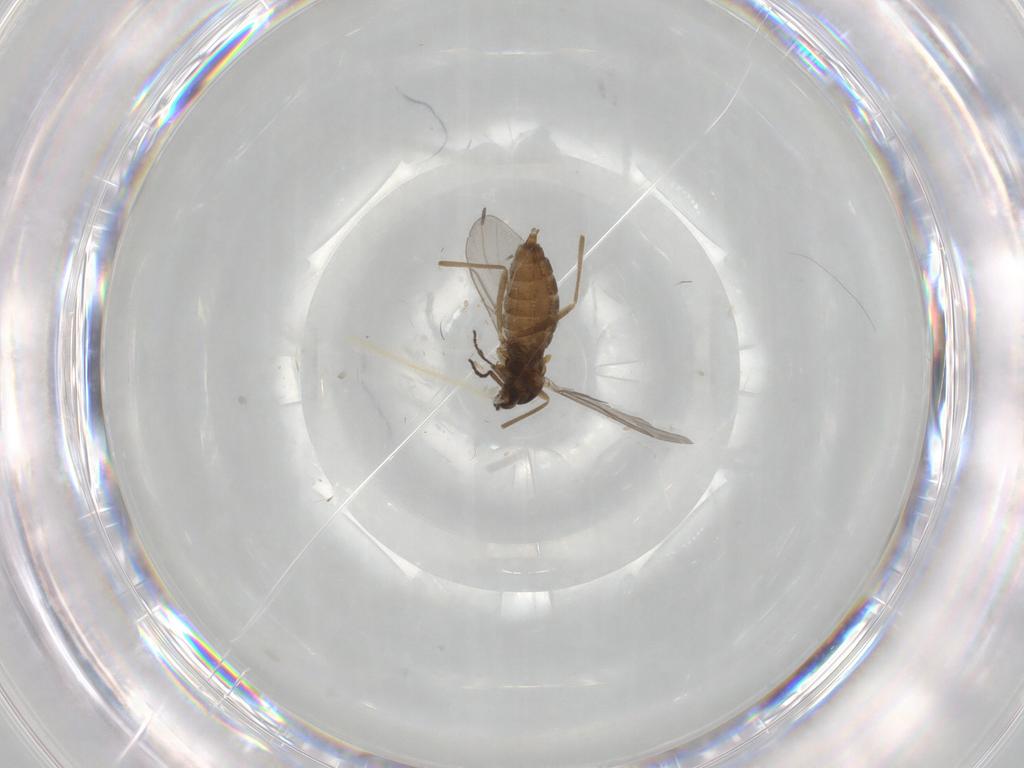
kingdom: Animalia
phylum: Arthropoda
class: Insecta
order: Diptera
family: Cecidomyiidae
